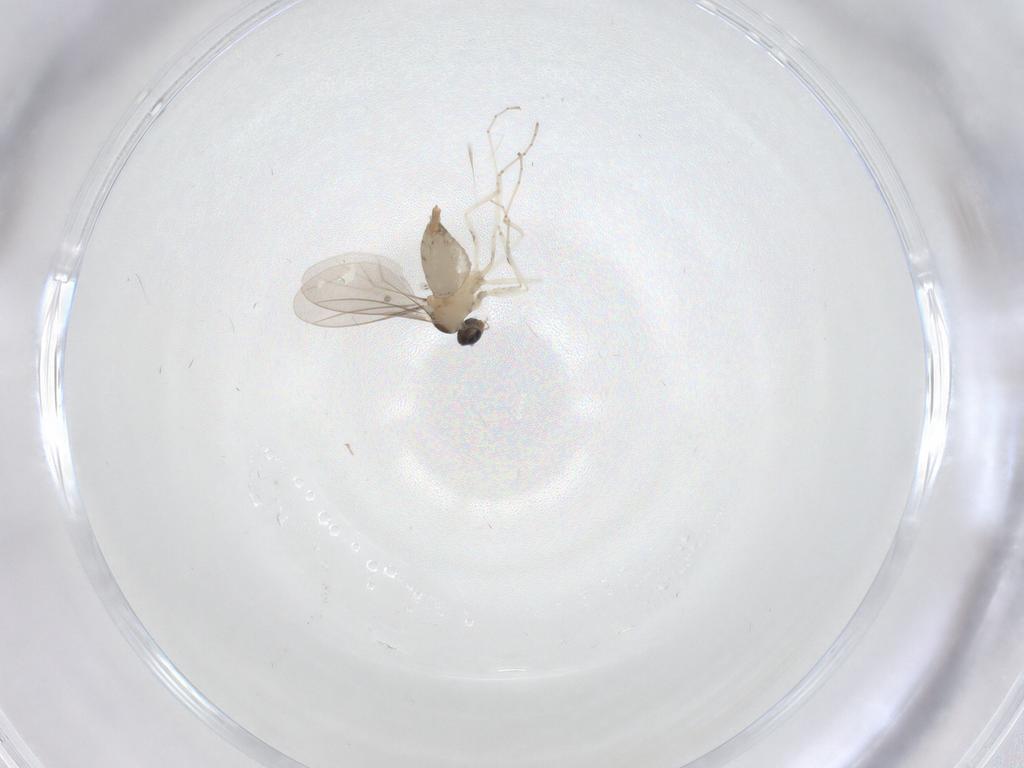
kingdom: Animalia
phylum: Arthropoda
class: Insecta
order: Diptera
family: Cecidomyiidae
